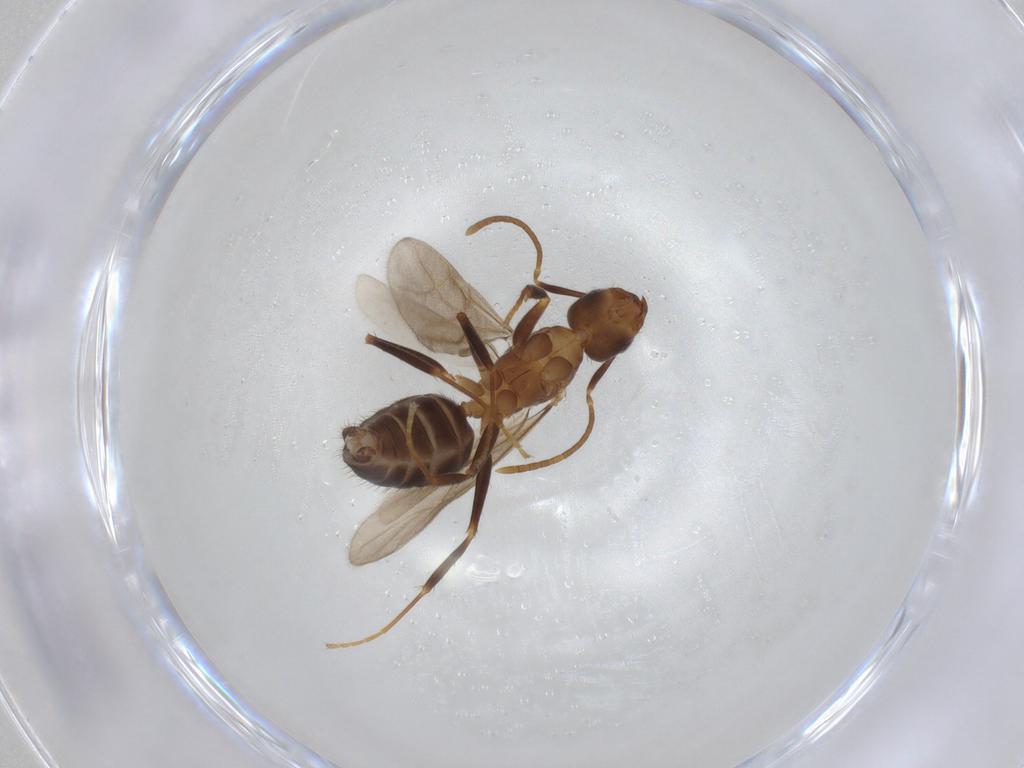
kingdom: Animalia
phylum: Arthropoda
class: Insecta
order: Hymenoptera
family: Formicidae
